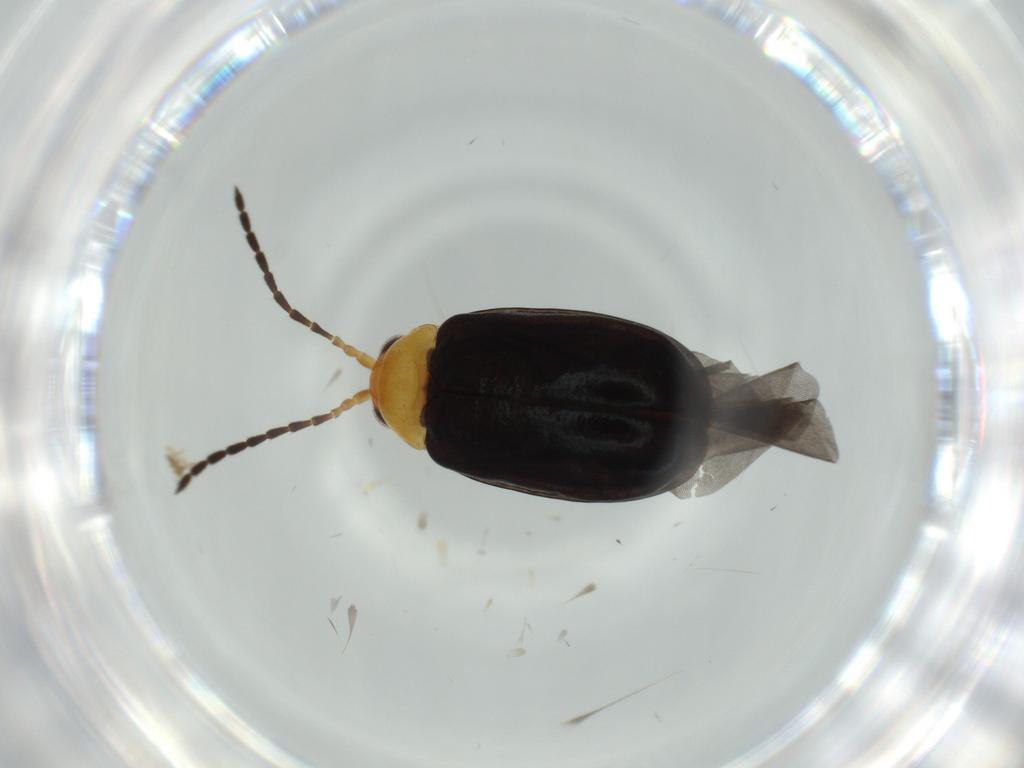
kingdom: Animalia
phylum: Arthropoda
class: Insecta
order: Coleoptera
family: Chrysomelidae
